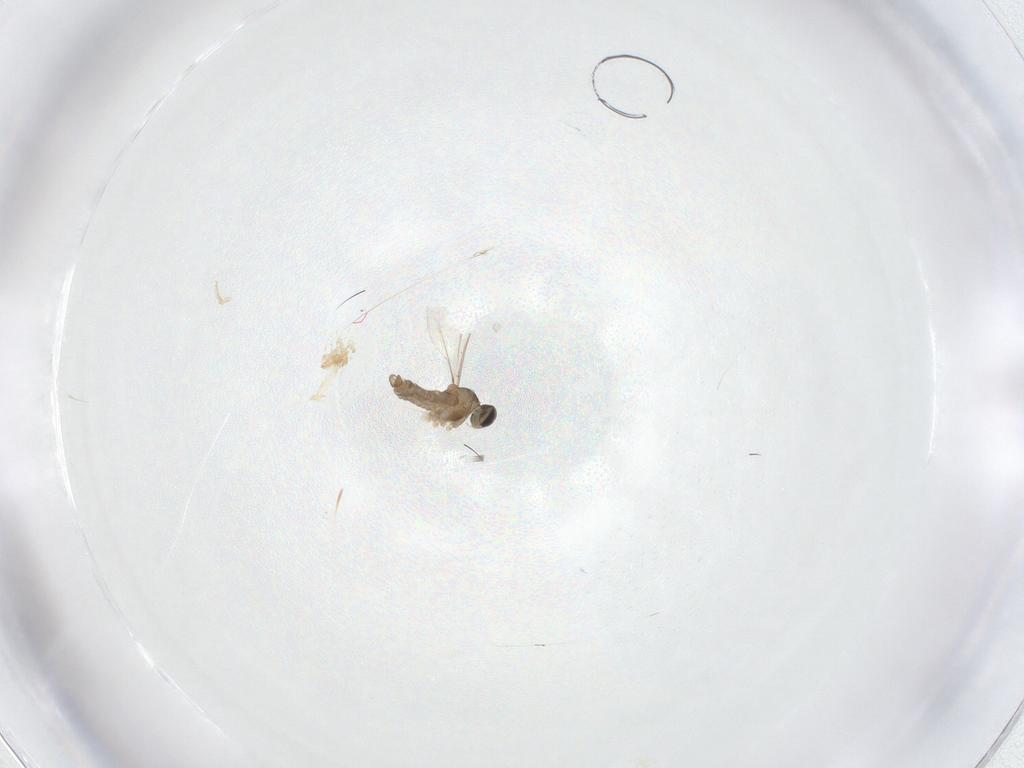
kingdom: Animalia
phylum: Arthropoda
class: Insecta
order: Diptera
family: Cecidomyiidae
